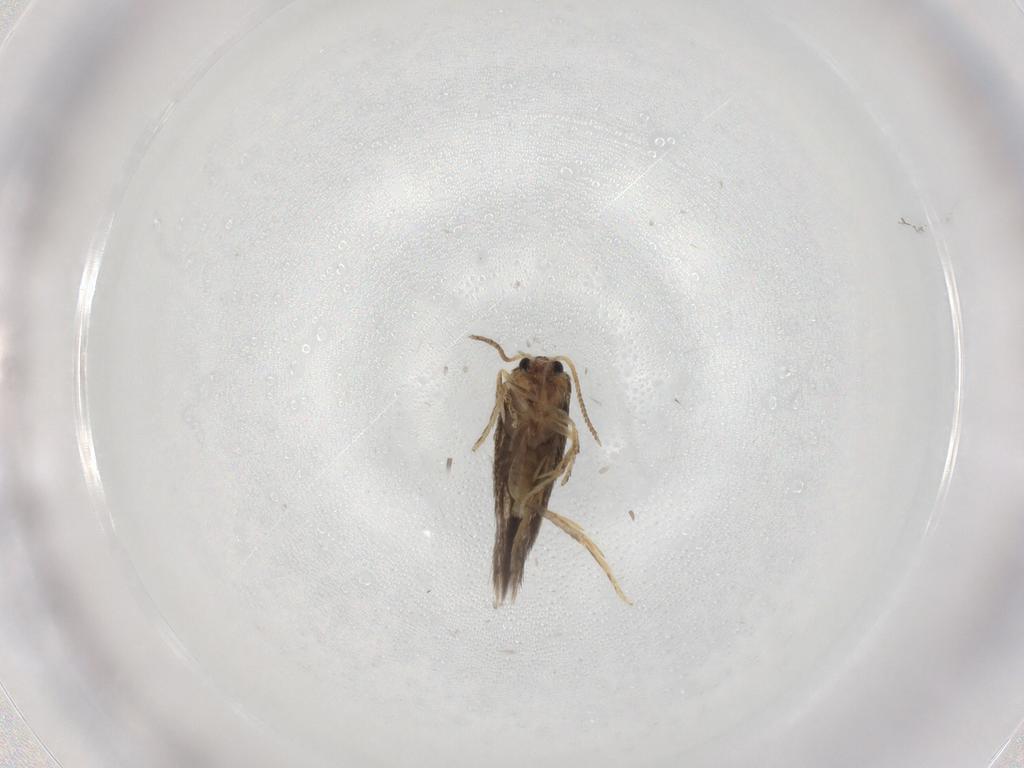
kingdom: Animalia
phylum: Arthropoda
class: Insecta
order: Lepidoptera
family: Nepticulidae
